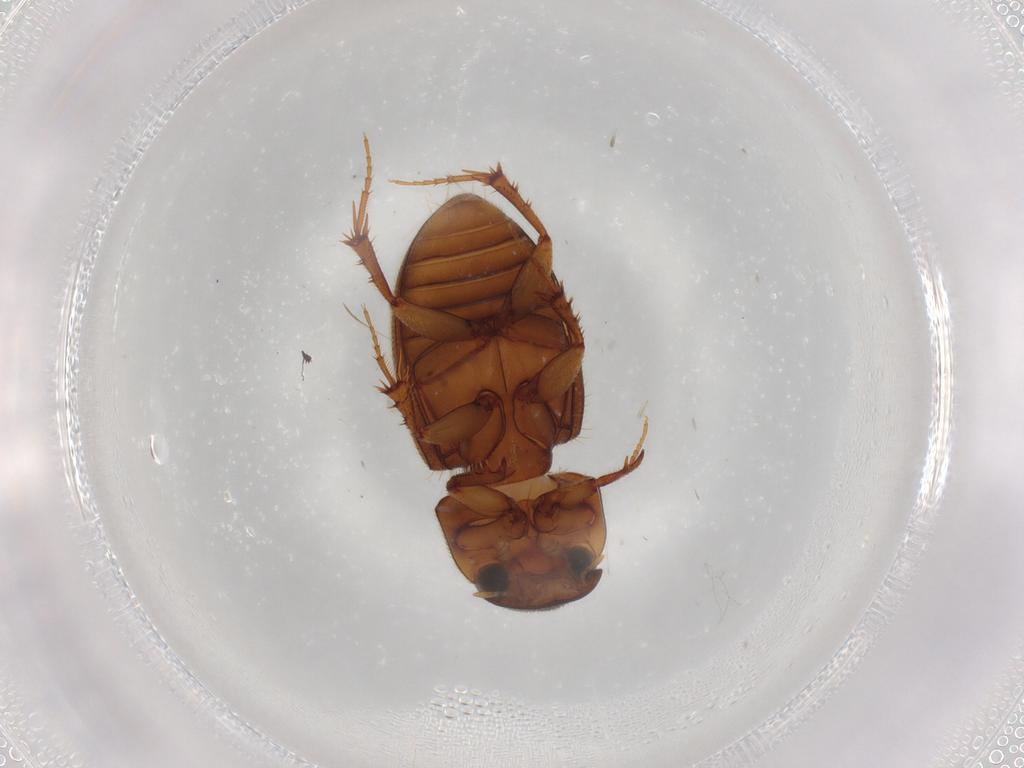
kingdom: Animalia
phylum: Arthropoda
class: Insecta
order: Coleoptera
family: Scarabaeidae
